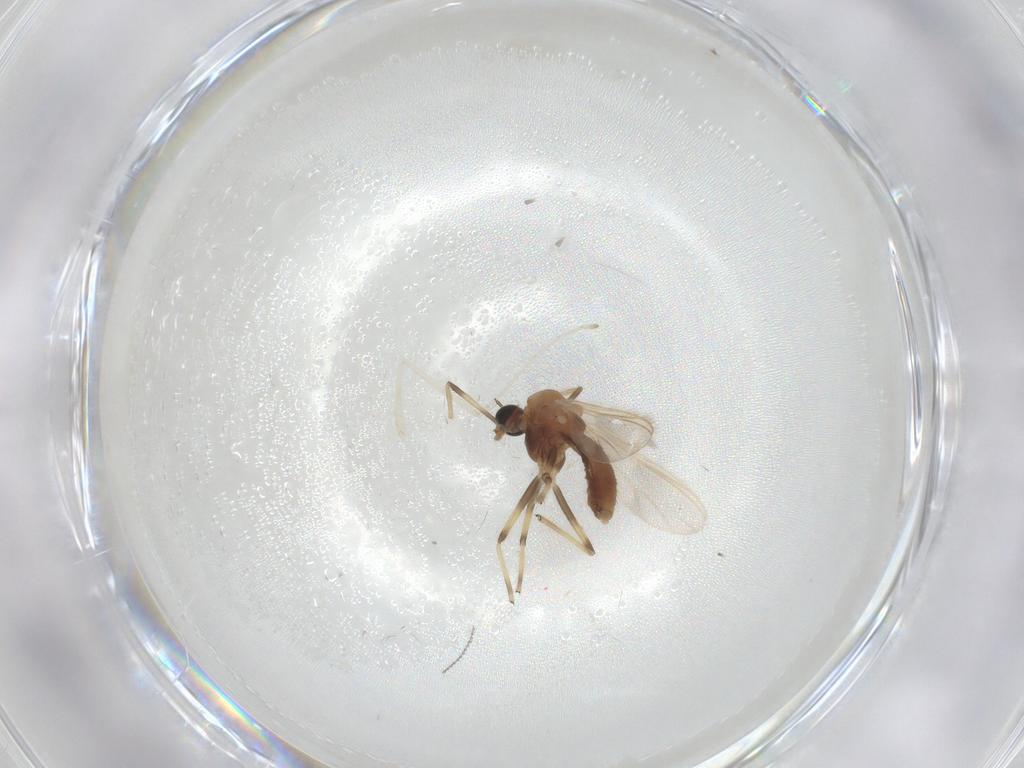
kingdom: Animalia
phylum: Arthropoda
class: Insecta
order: Diptera
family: Chironomidae
